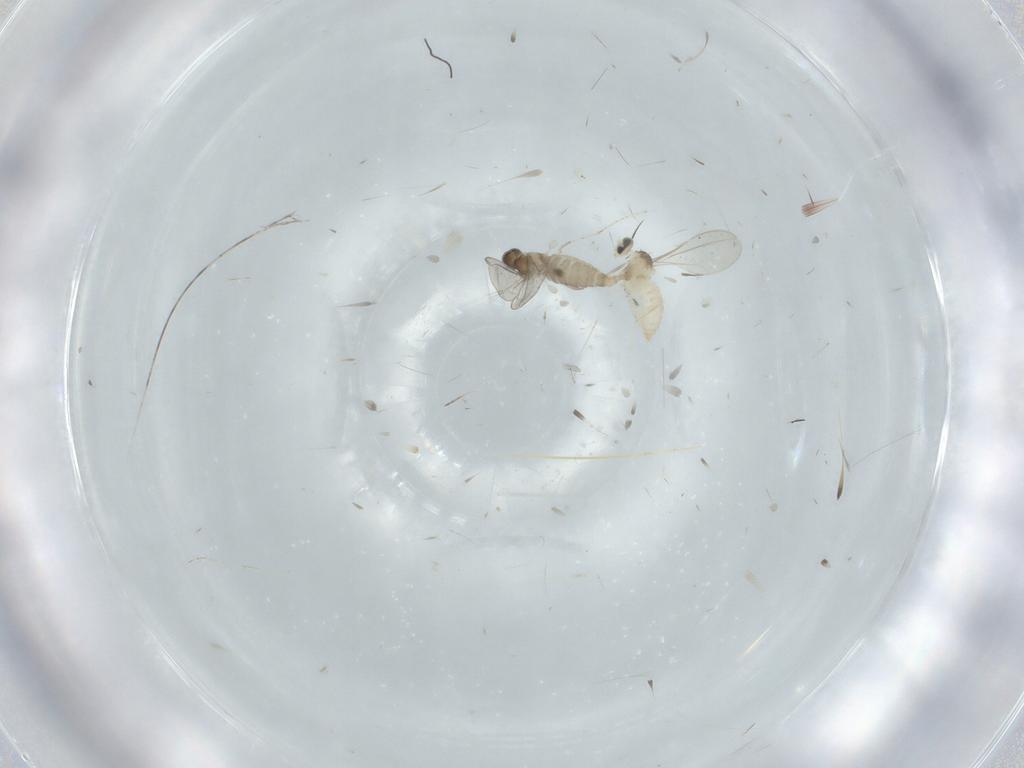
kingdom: Animalia
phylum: Arthropoda
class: Insecta
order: Diptera
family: Cecidomyiidae
